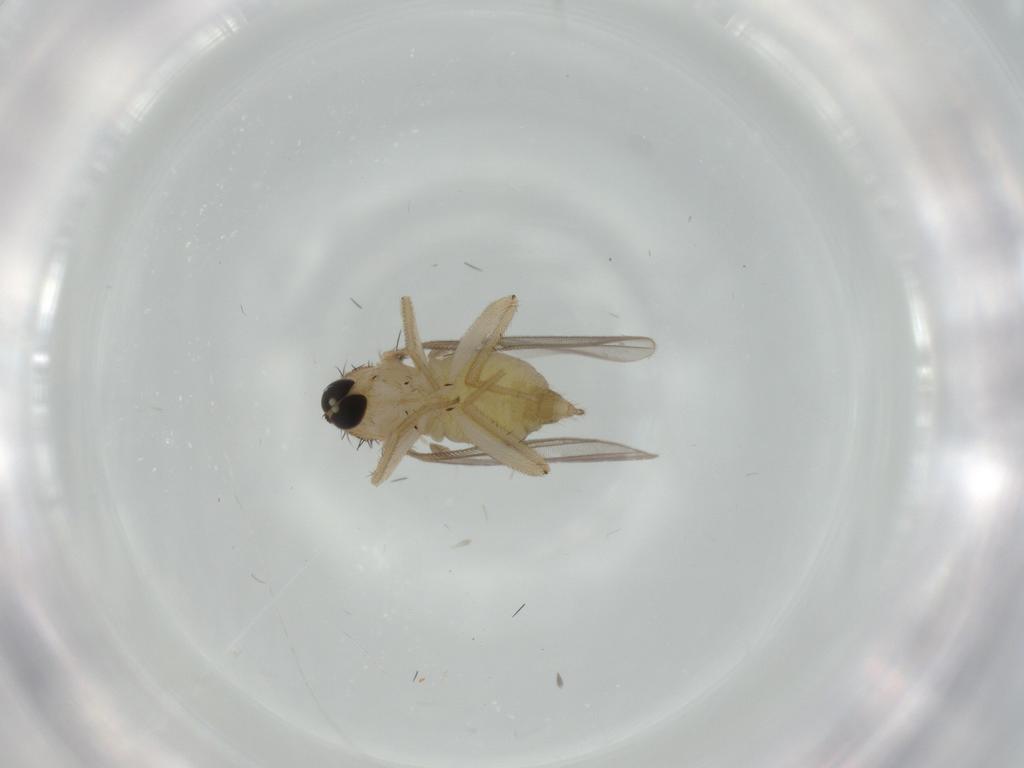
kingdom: Animalia
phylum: Arthropoda
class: Insecta
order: Diptera
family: Hybotidae
